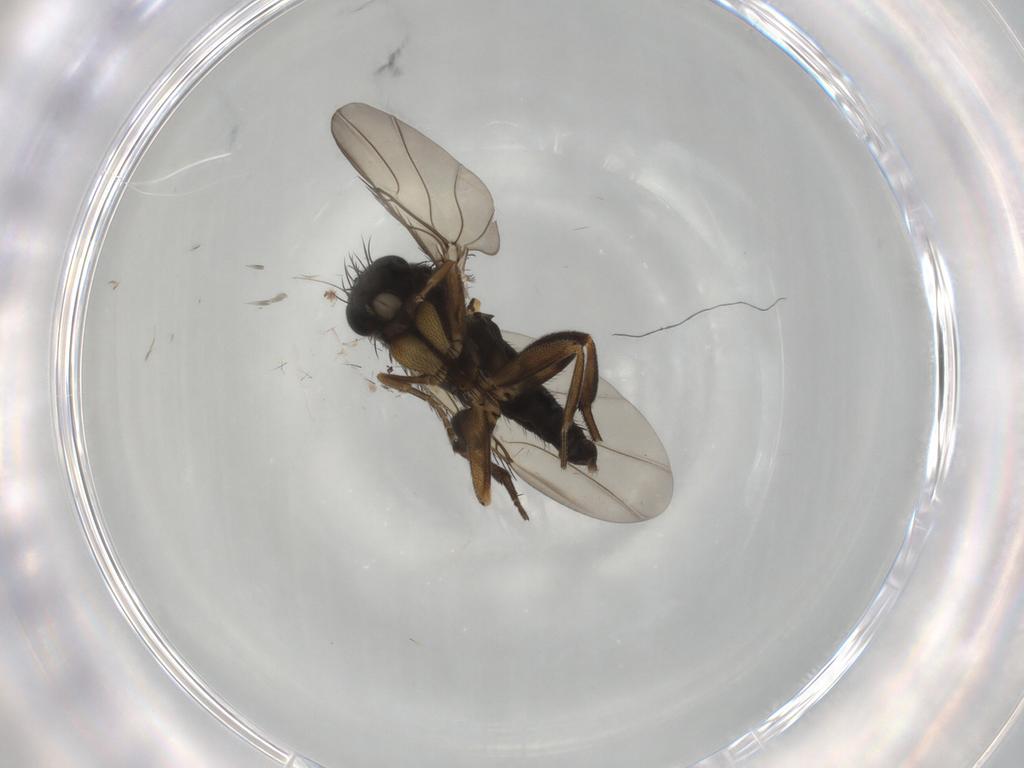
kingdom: Animalia
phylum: Arthropoda
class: Insecta
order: Diptera
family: Phoridae
